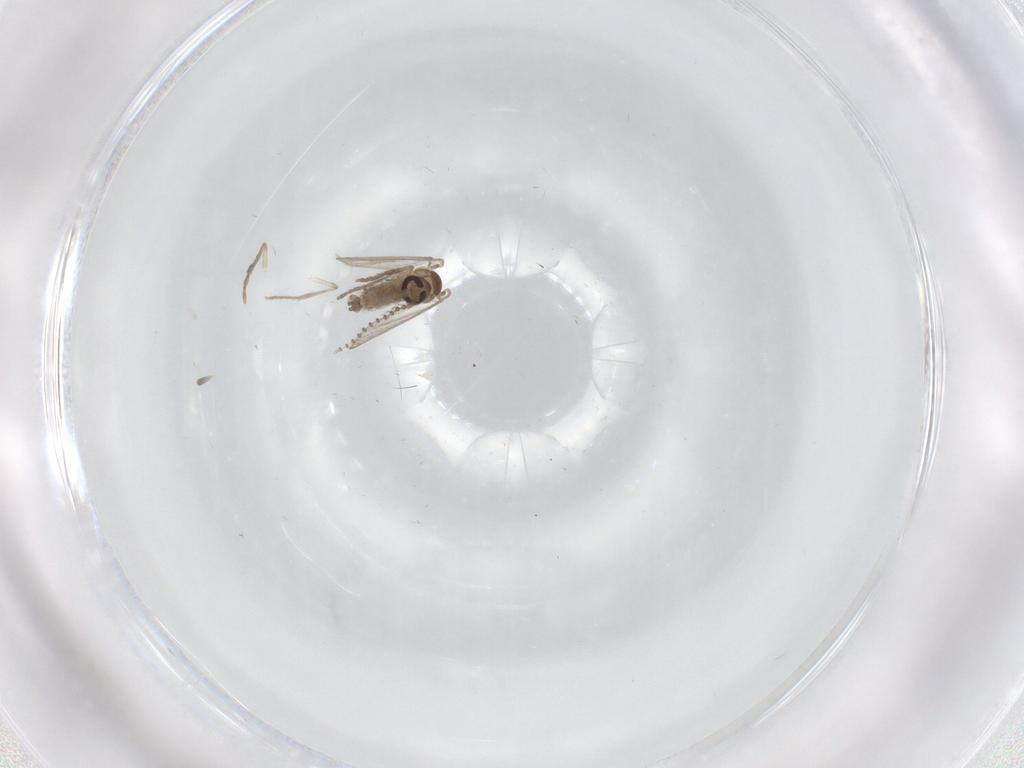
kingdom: Animalia
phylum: Arthropoda
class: Insecta
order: Diptera
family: Psychodidae
